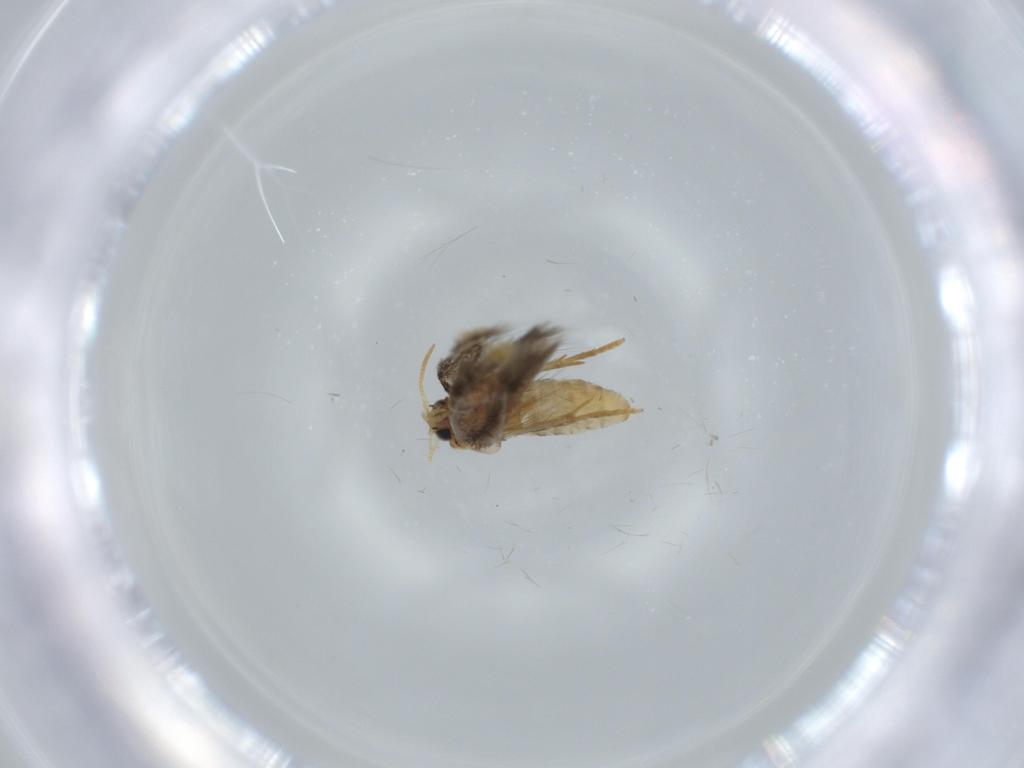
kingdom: Animalia
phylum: Arthropoda
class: Insecta
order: Lepidoptera
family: Copromorphidae
